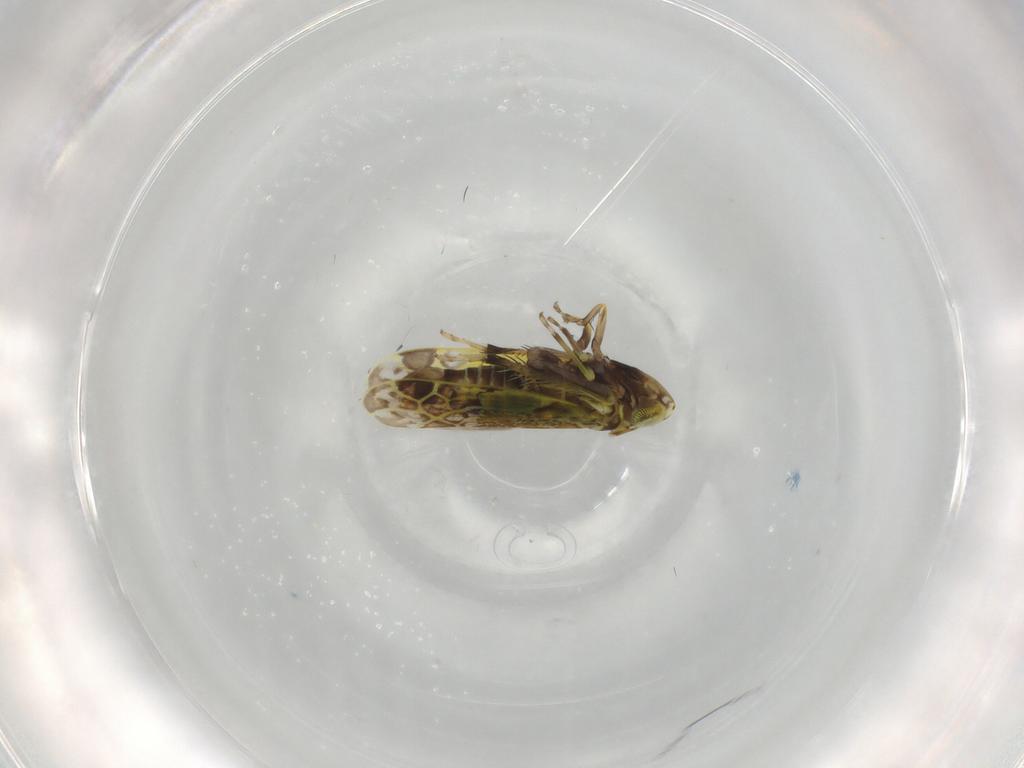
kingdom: Animalia
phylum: Arthropoda
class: Insecta
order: Hemiptera
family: Cicadellidae
